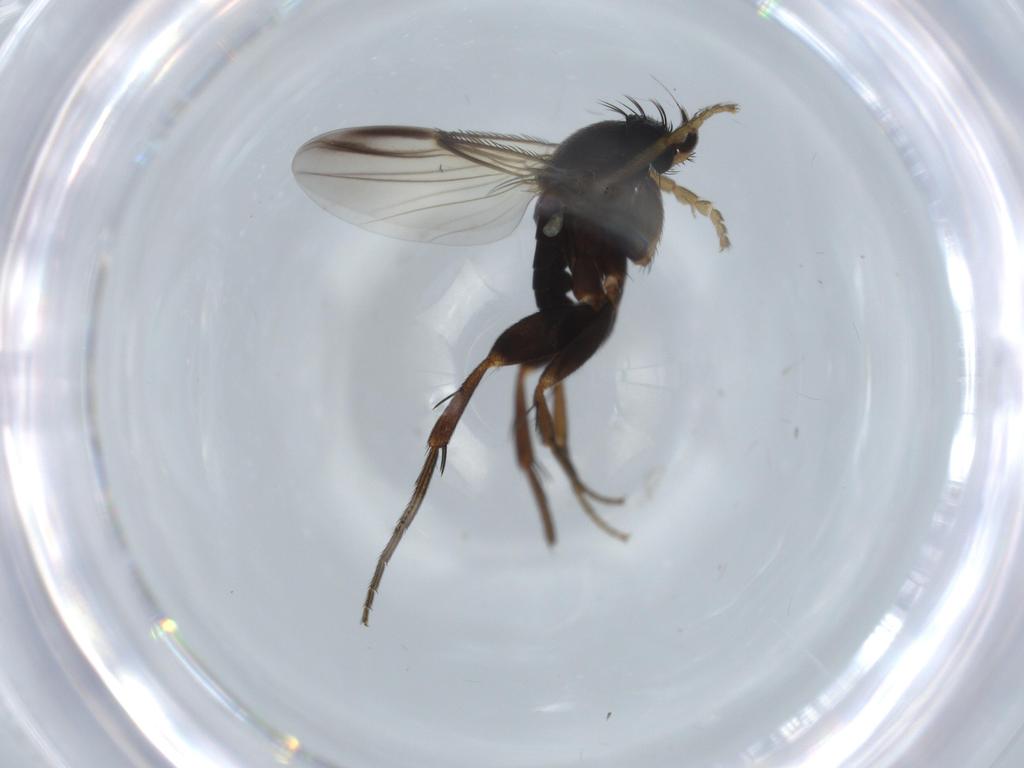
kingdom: Animalia
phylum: Arthropoda
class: Insecta
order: Diptera
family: Phoridae
